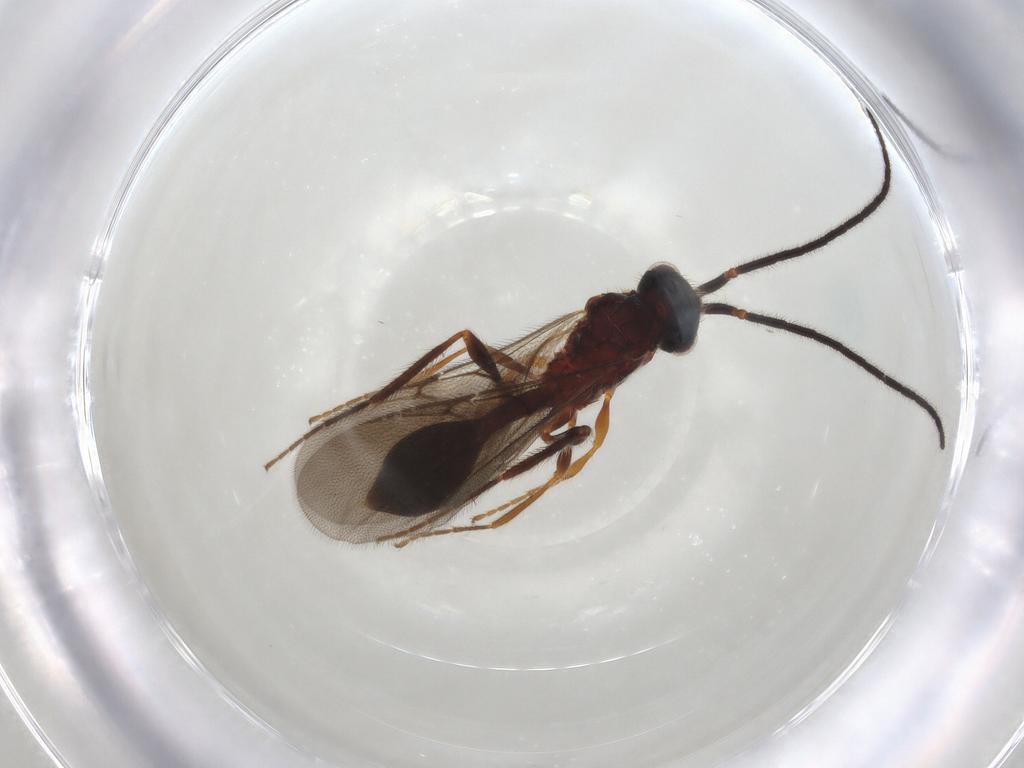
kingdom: Animalia
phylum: Arthropoda
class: Insecta
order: Hymenoptera
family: Diapriidae
